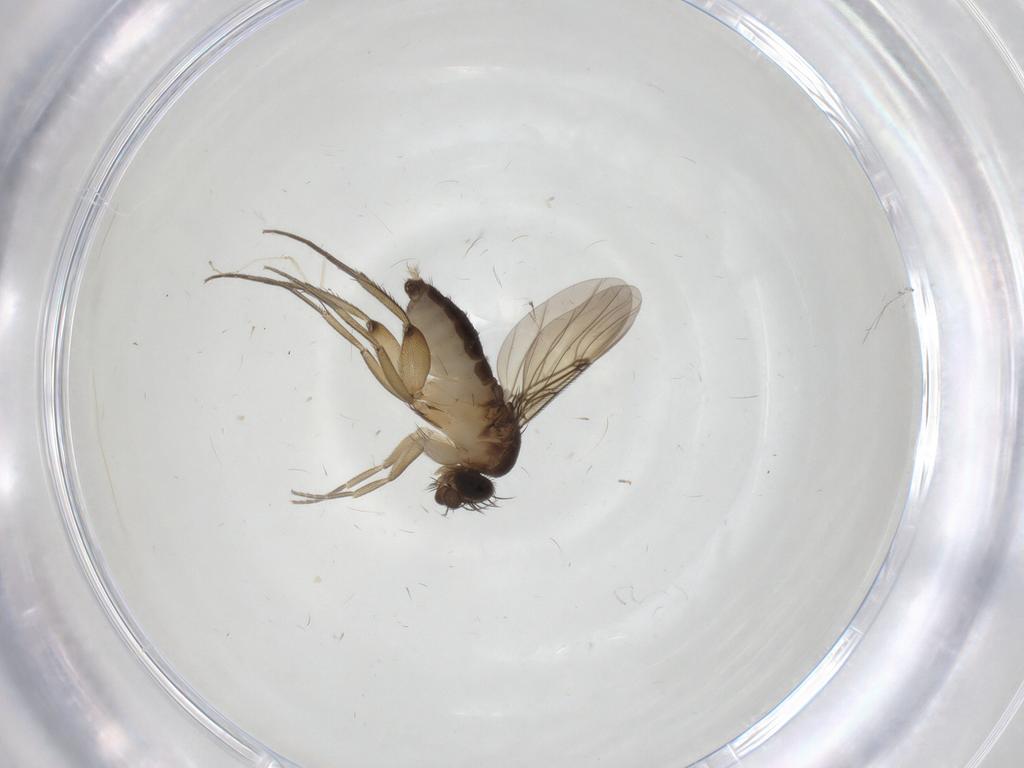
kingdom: Animalia
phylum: Arthropoda
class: Insecta
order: Diptera
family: Phoridae
